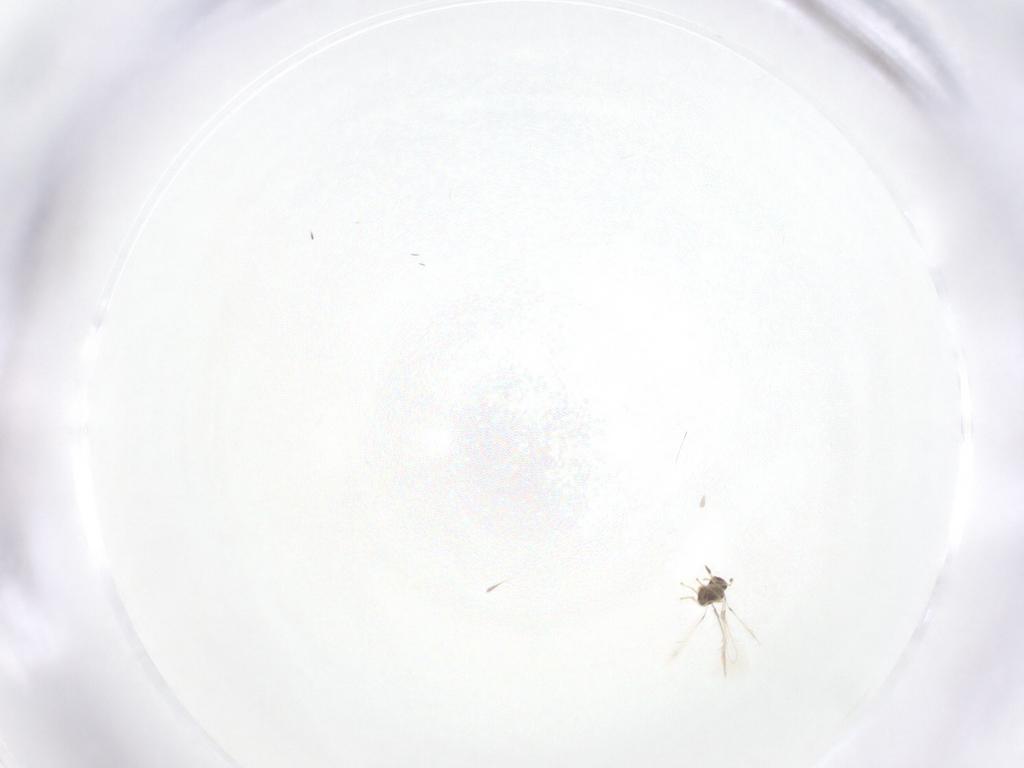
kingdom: Animalia
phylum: Arthropoda
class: Insecta
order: Hymenoptera
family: Mymaridae
